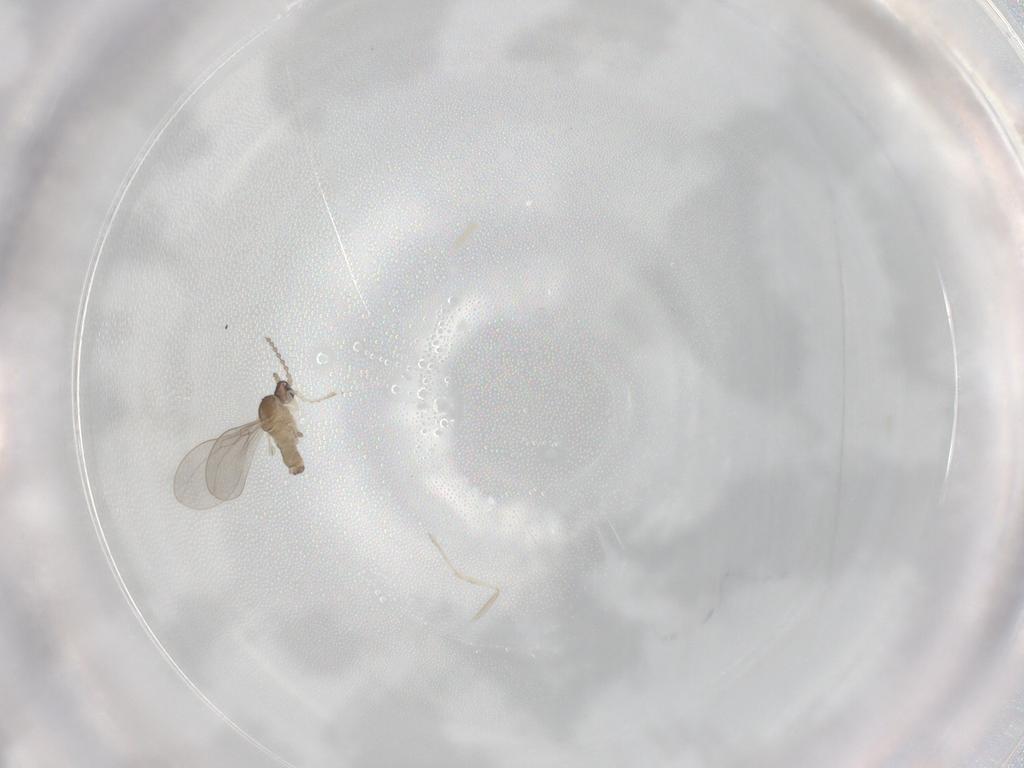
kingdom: Animalia
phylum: Arthropoda
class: Insecta
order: Diptera
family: Cecidomyiidae
